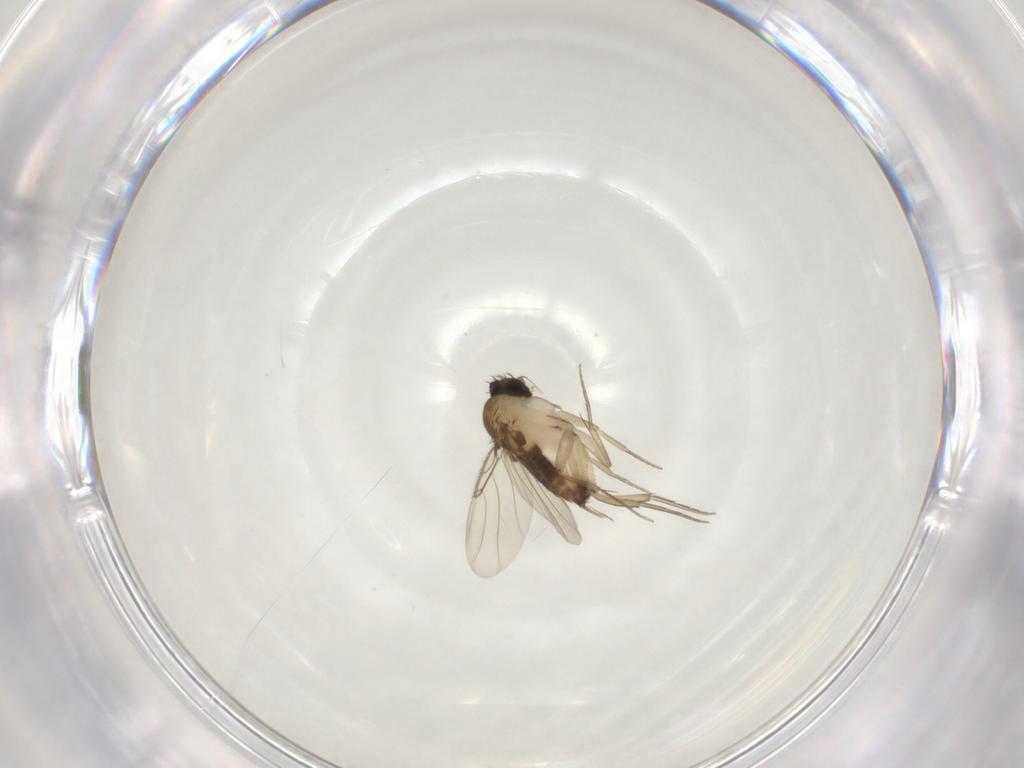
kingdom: Animalia
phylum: Arthropoda
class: Insecta
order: Diptera
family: Phoridae
